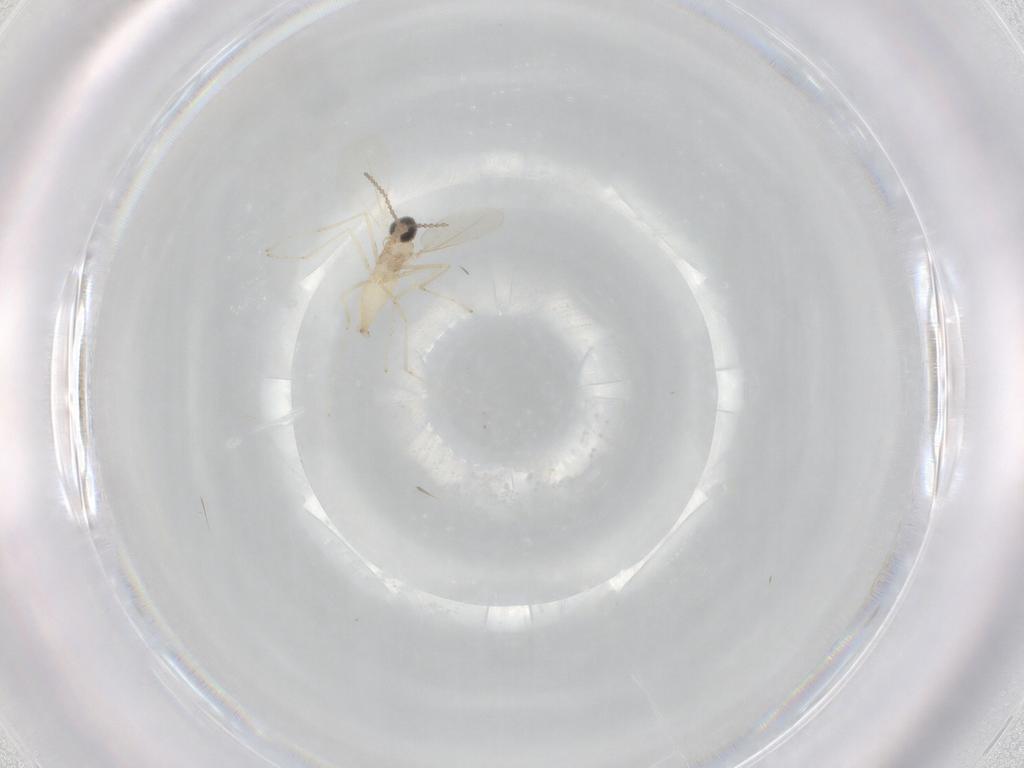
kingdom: Animalia
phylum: Arthropoda
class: Insecta
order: Diptera
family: Cecidomyiidae
